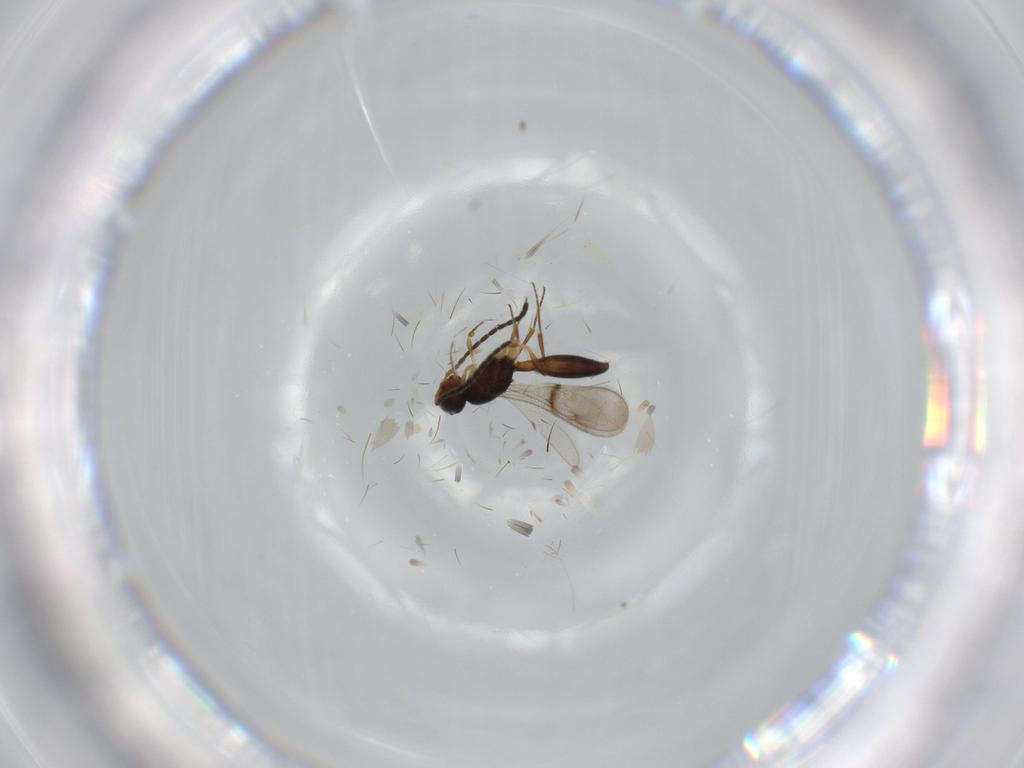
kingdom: Animalia
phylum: Arthropoda
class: Insecta
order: Hymenoptera
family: Scelionidae
